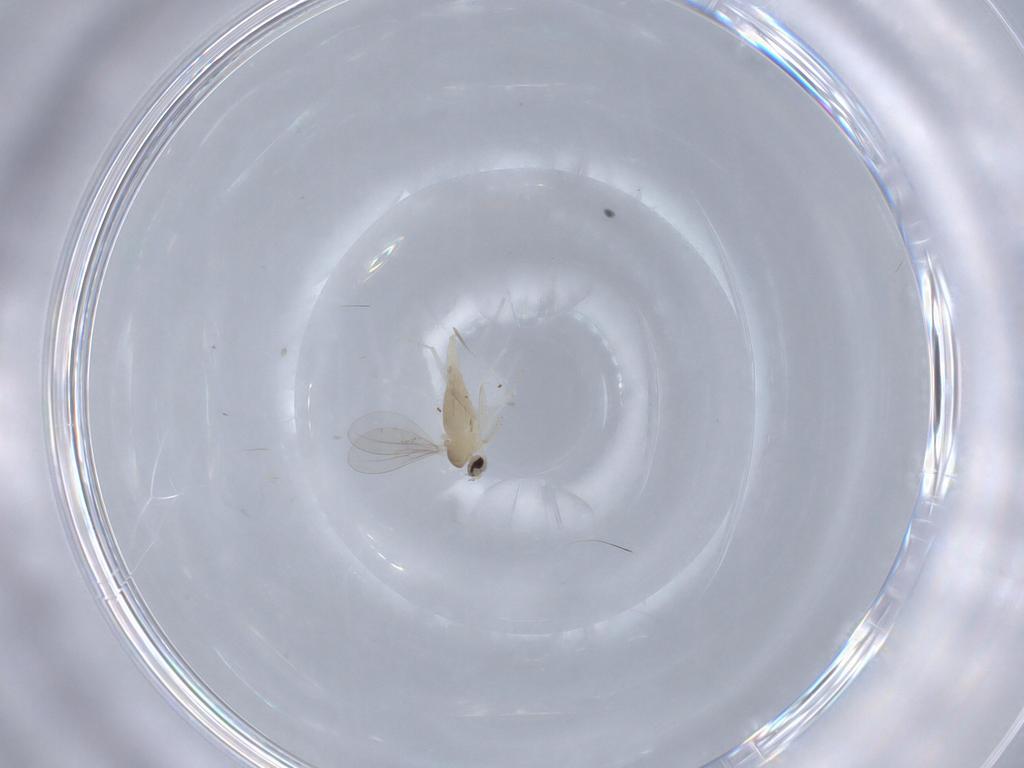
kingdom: Animalia
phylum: Arthropoda
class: Insecta
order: Diptera
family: Cecidomyiidae
